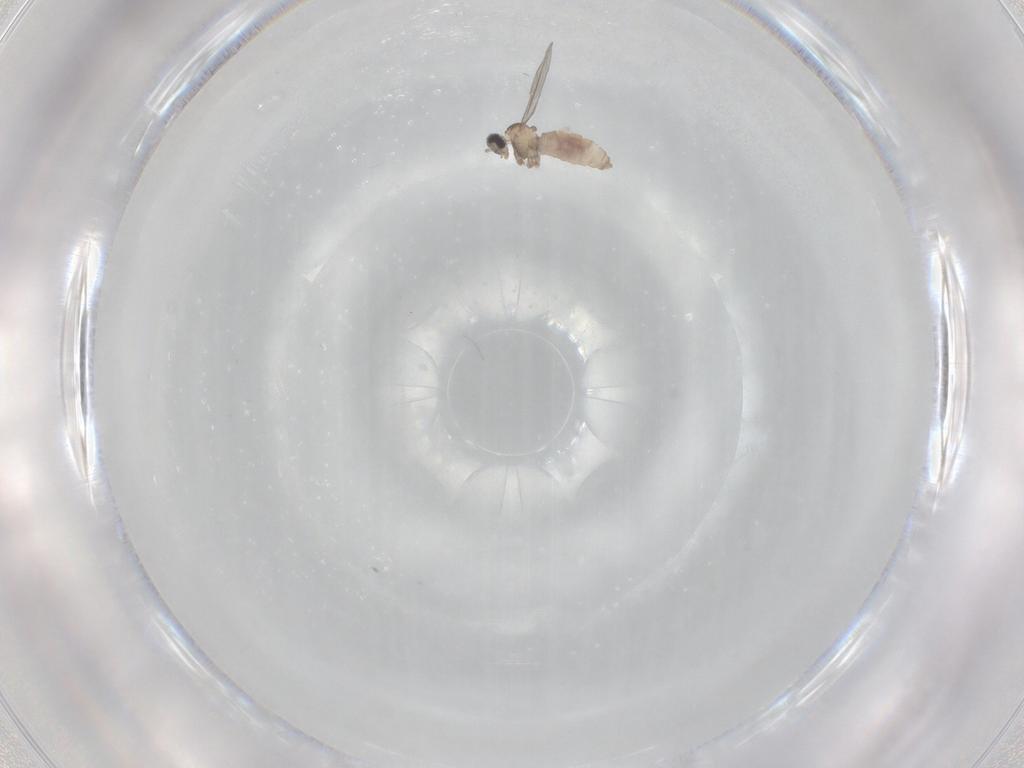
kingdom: Animalia
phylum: Arthropoda
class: Insecta
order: Diptera
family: Cecidomyiidae
